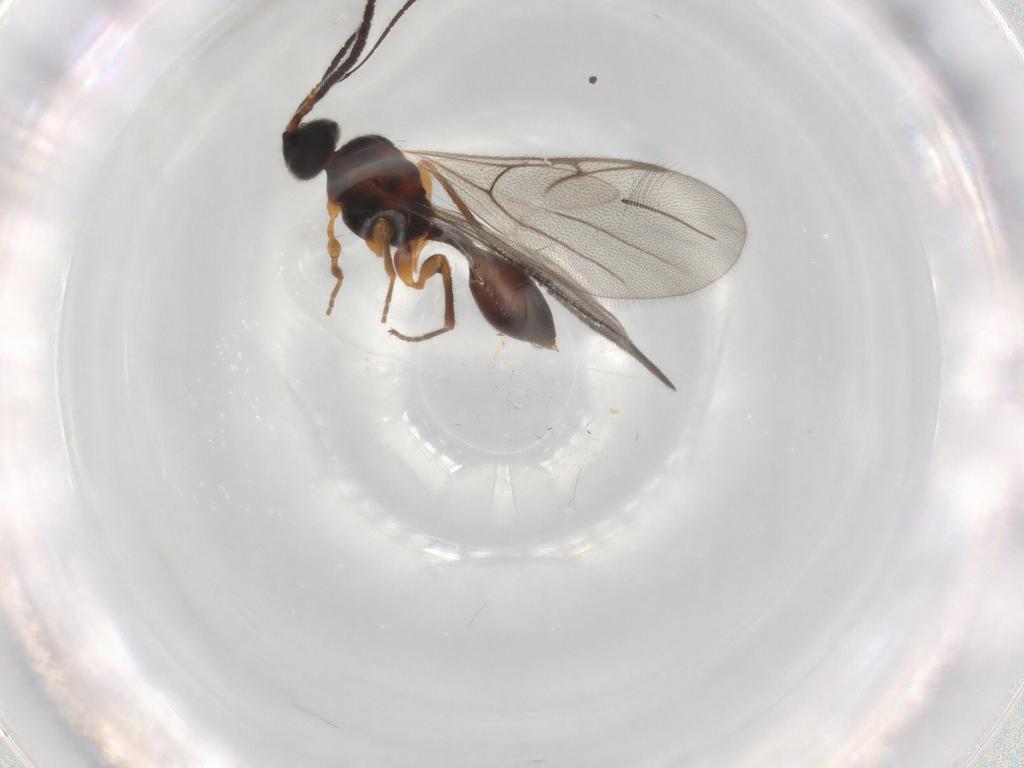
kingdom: Animalia
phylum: Arthropoda
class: Insecta
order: Hymenoptera
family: Diapriidae
